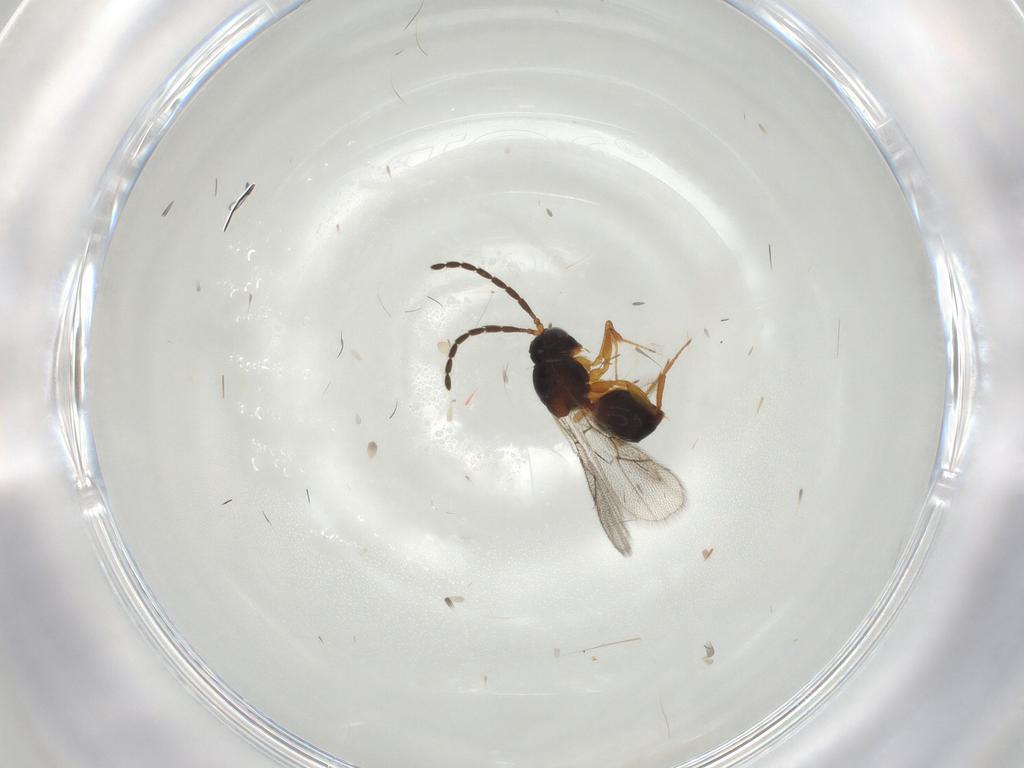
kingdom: Animalia
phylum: Arthropoda
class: Insecta
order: Hymenoptera
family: Figitidae
